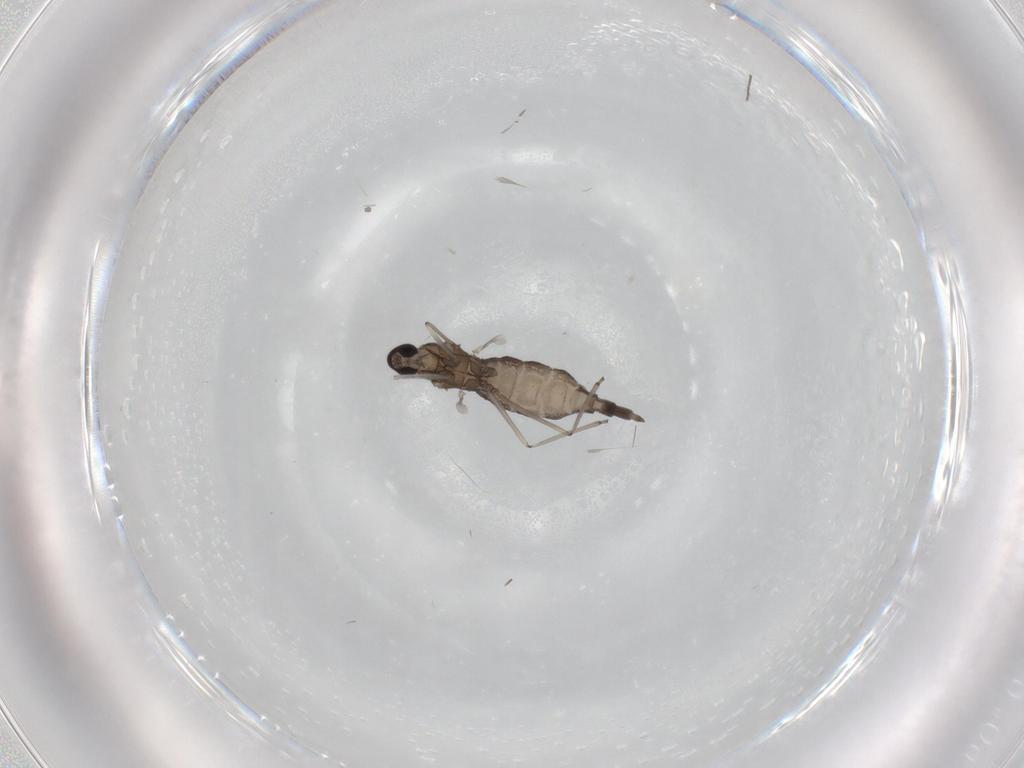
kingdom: Animalia
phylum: Arthropoda
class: Insecta
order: Diptera
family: Chironomidae
